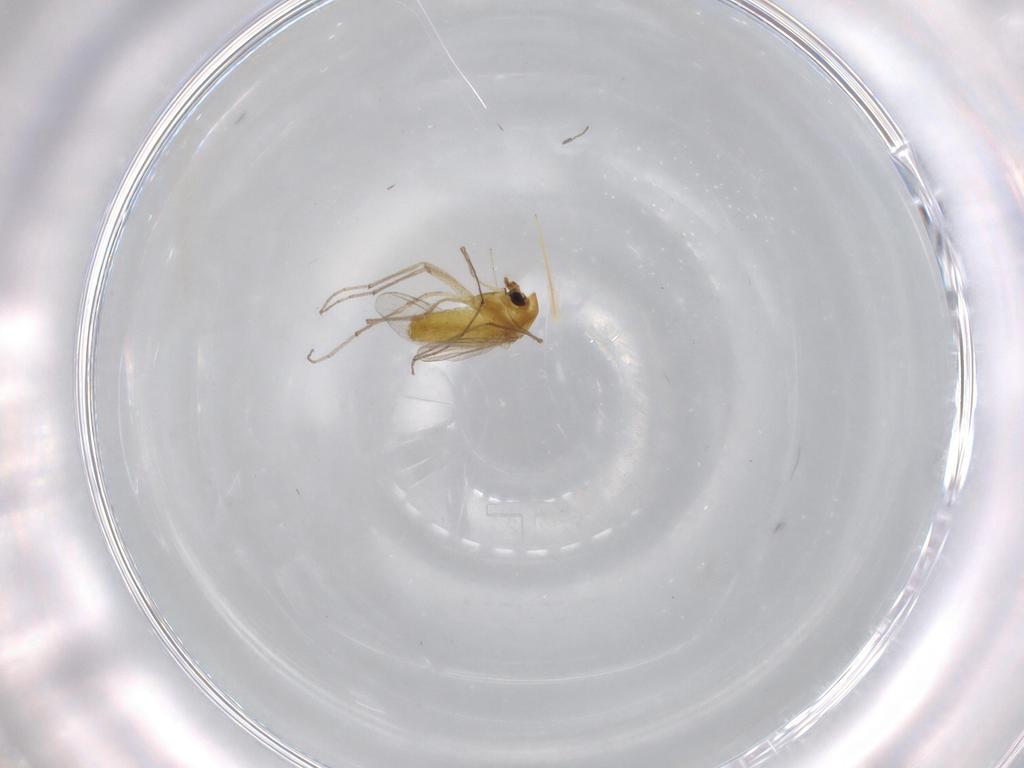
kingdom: Animalia
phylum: Arthropoda
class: Insecta
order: Diptera
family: Chironomidae
